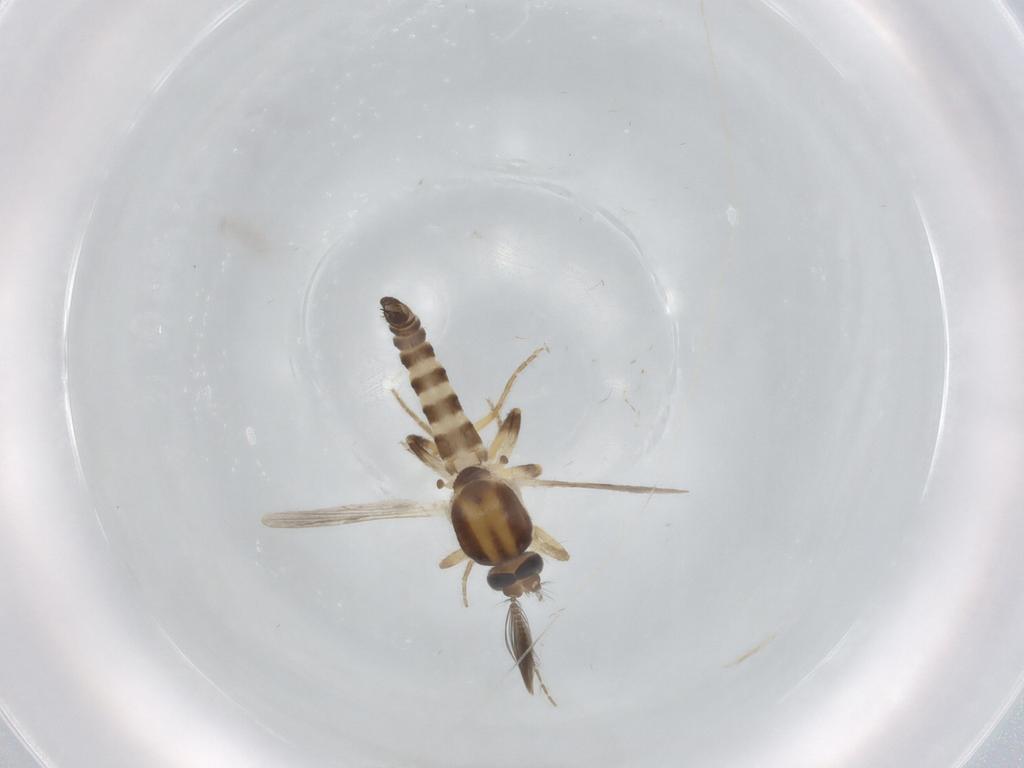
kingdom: Animalia
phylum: Arthropoda
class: Insecta
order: Diptera
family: Ceratopogonidae
